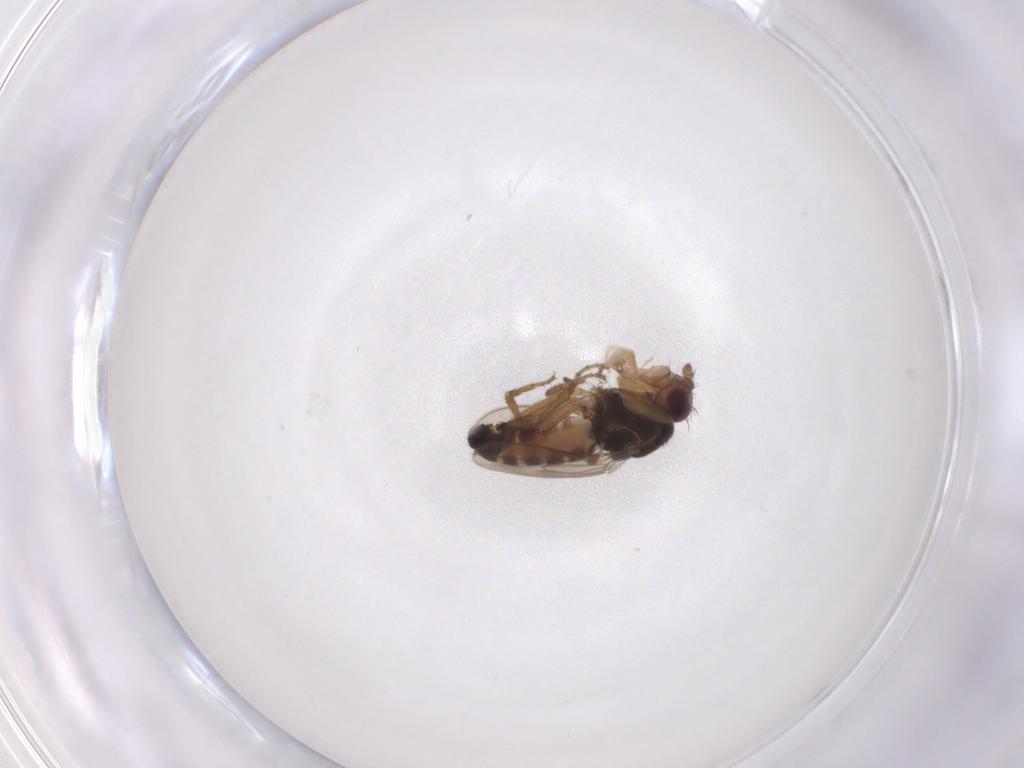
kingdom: Animalia
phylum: Arthropoda
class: Insecta
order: Diptera
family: Sphaeroceridae
